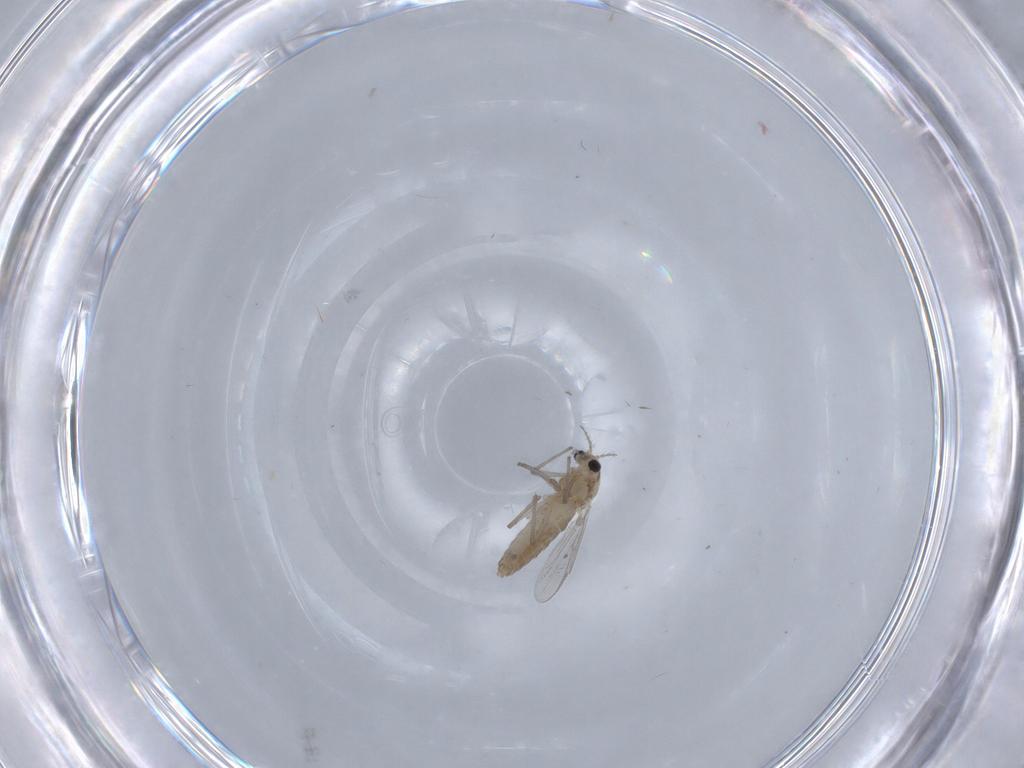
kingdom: Animalia
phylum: Arthropoda
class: Insecta
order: Diptera
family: Chironomidae
